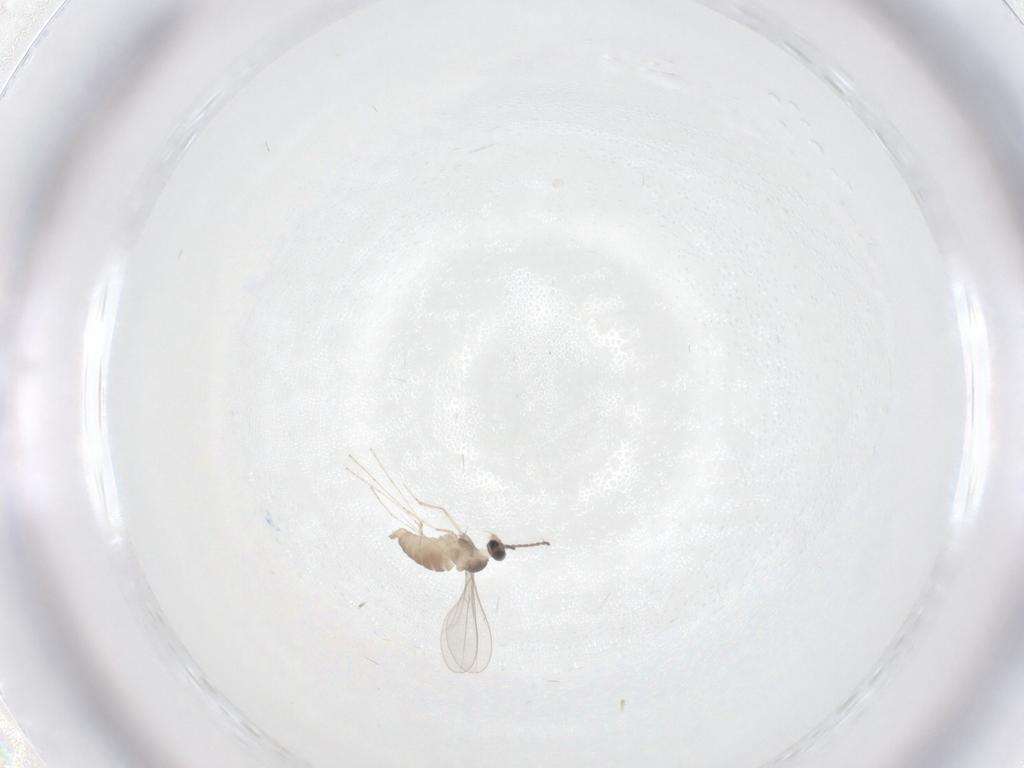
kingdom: Animalia
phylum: Arthropoda
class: Insecta
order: Diptera
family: Cecidomyiidae
